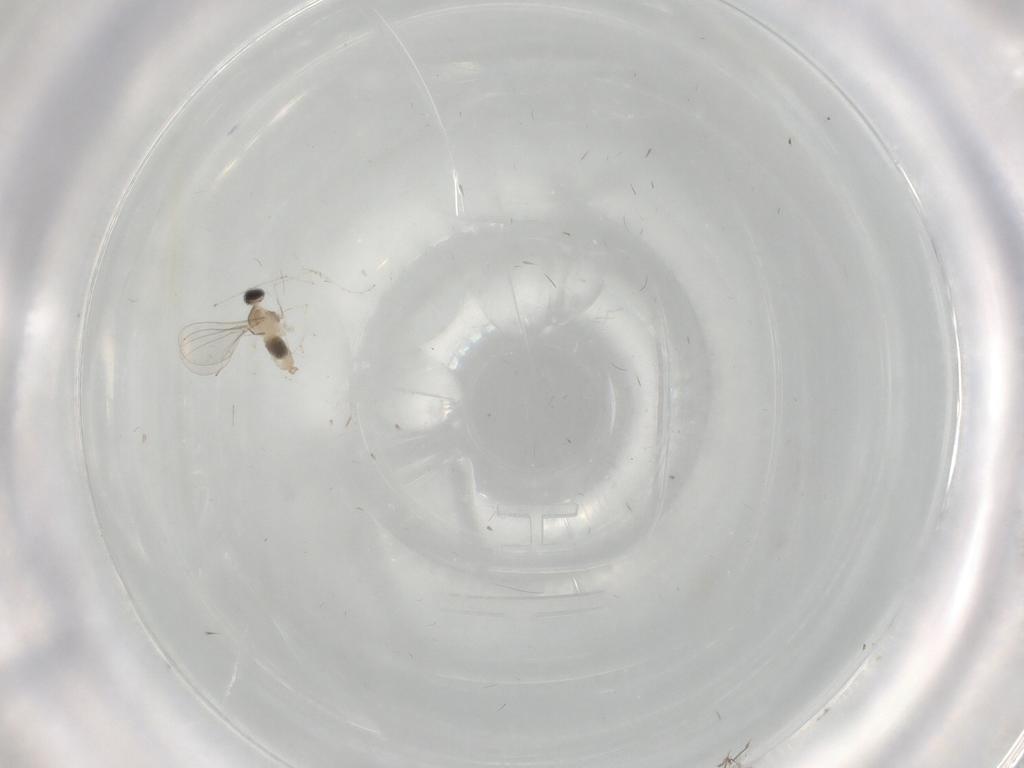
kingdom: Animalia
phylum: Arthropoda
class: Insecta
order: Diptera
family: Cecidomyiidae
